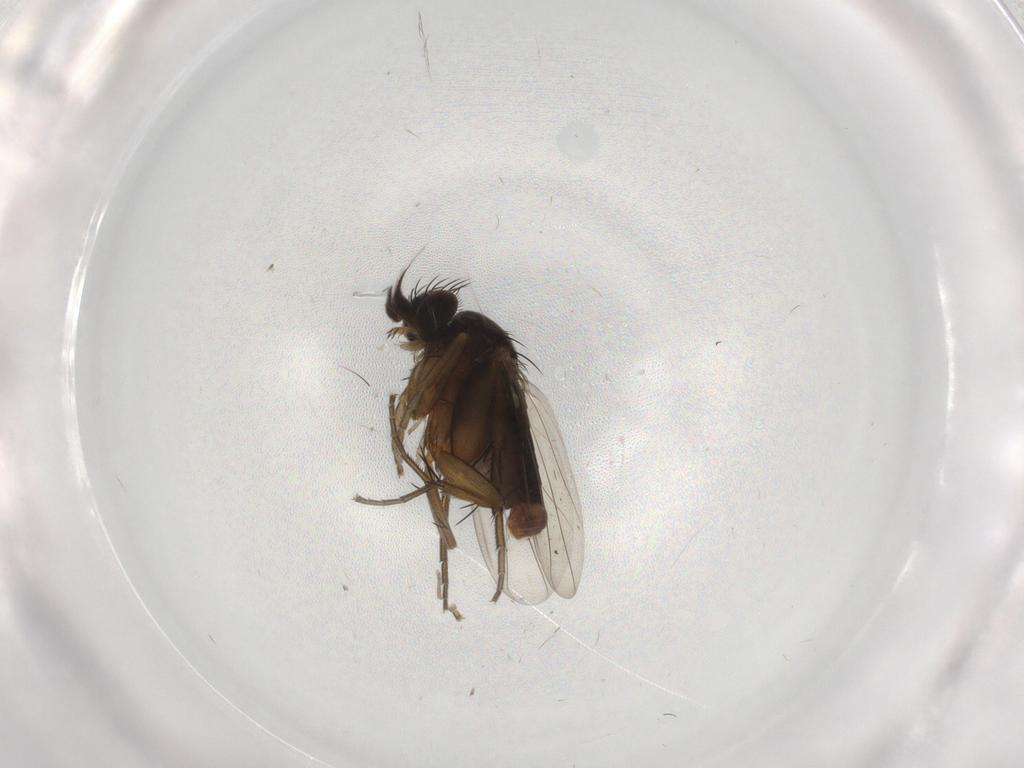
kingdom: Animalia
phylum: Arthropoda
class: Insecta
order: Diptera
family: Phoridae
